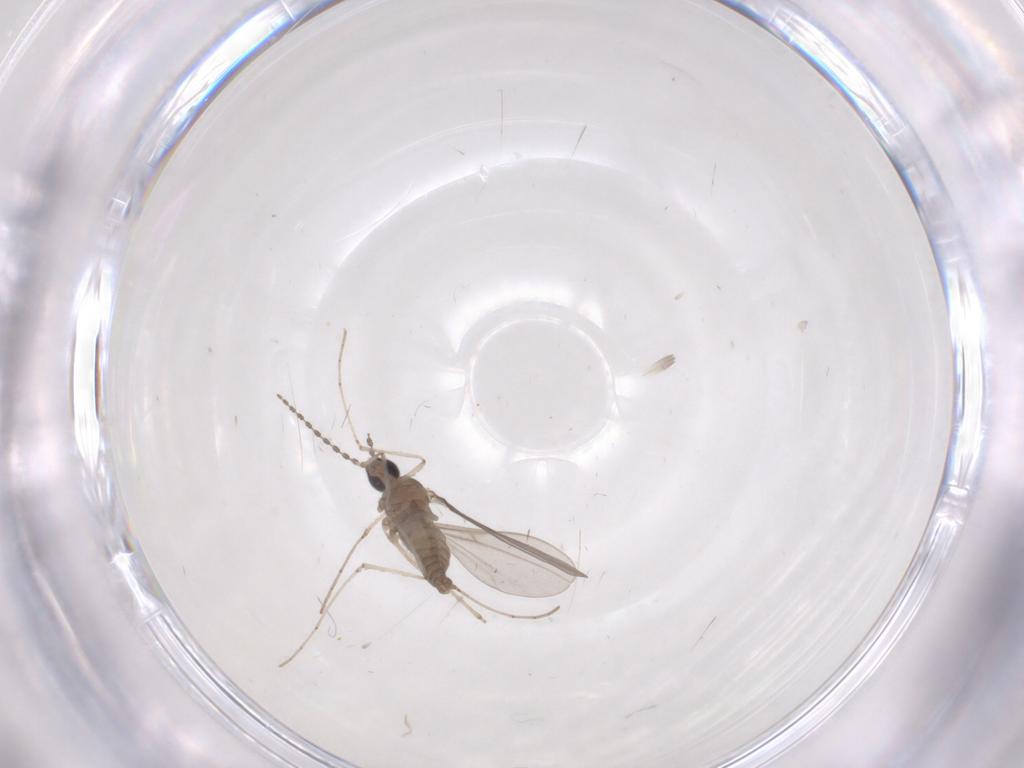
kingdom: Animalia
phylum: Arthropoda
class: Insecta
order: Diptera
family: Cecidomyiidae
